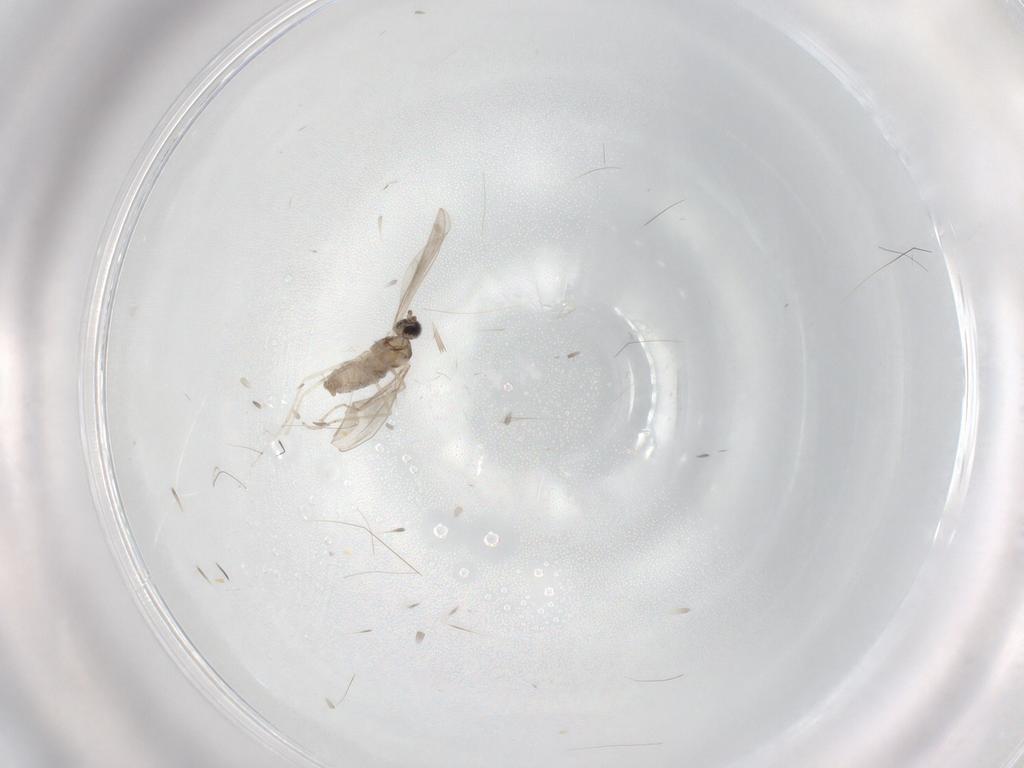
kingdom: Animalia
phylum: Arthropoda
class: Insecta
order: Diptera
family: Cecidomyiidae
